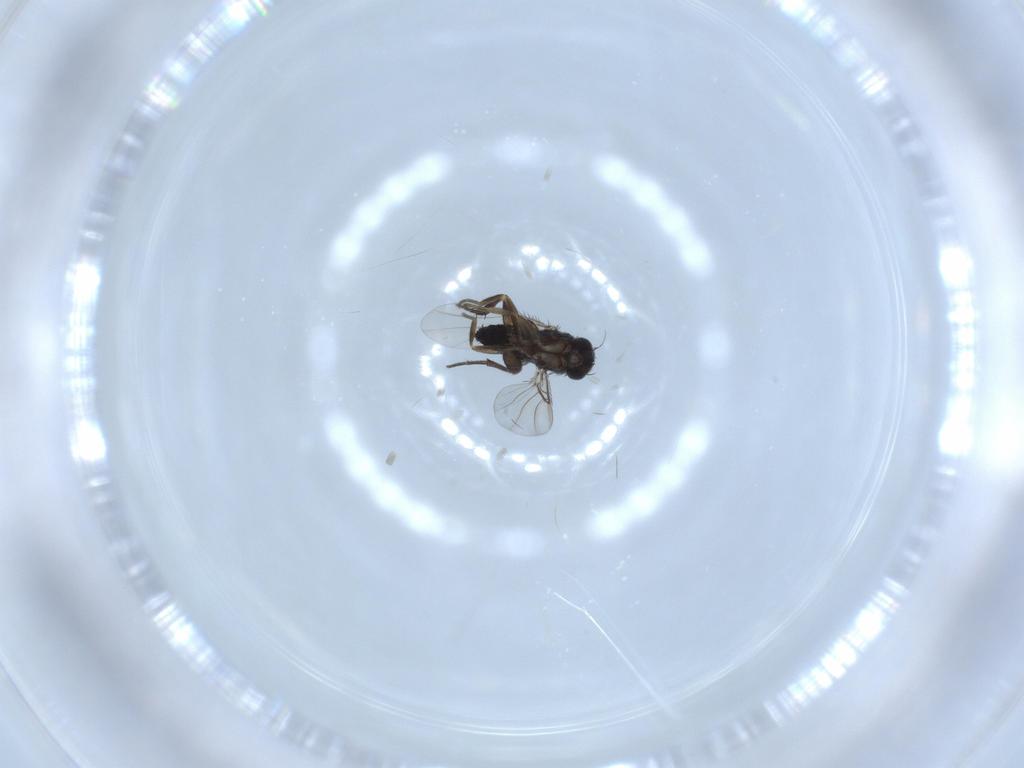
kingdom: Animalia
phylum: Arthropoda
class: Insecta
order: Diptera
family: Phoridae
